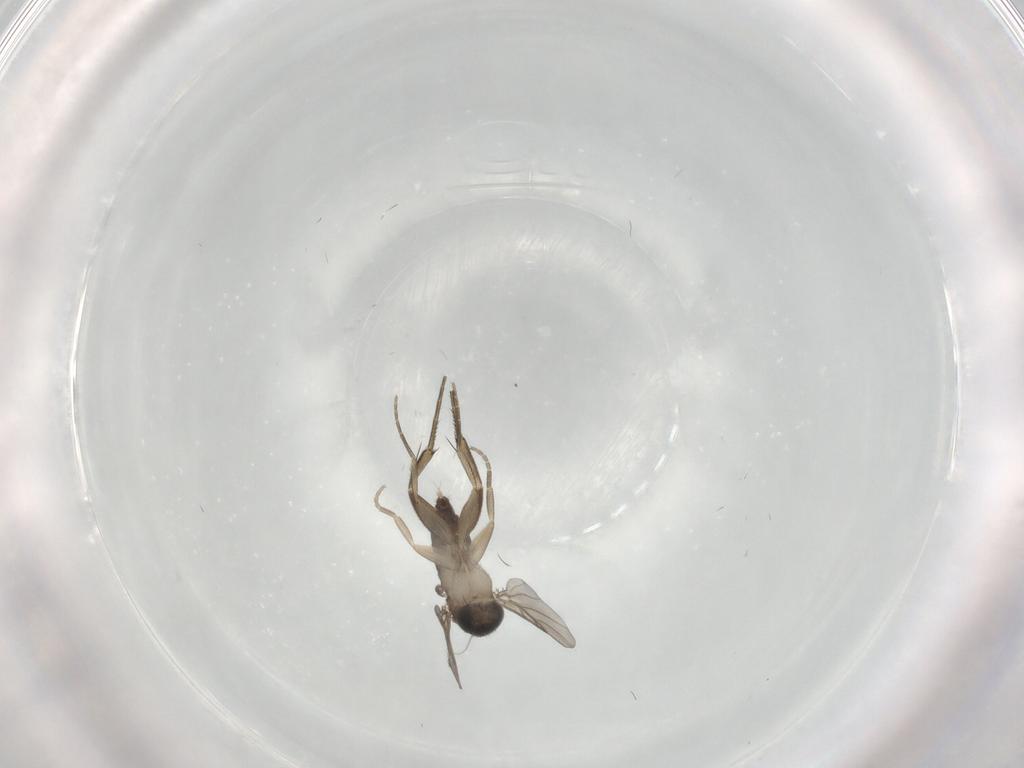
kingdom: Animalia
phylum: Arthropoda
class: Insecta
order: Diptera
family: Phoridae
